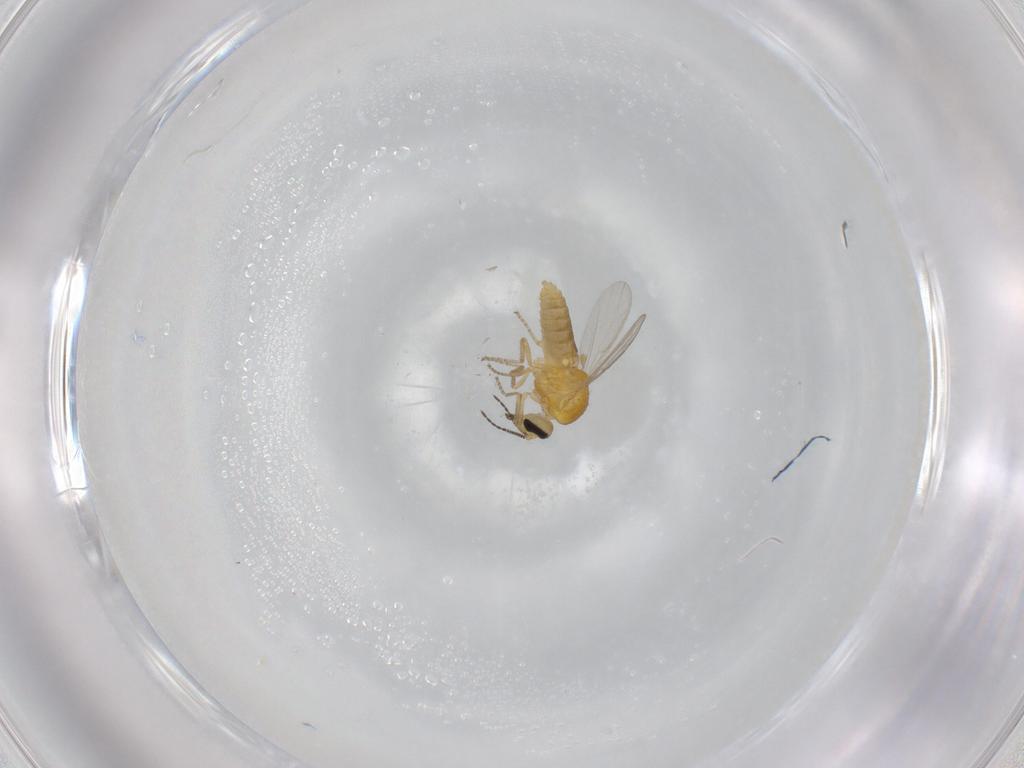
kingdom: Animalia
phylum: Arthropoda
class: Insecta
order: Diptera
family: Ceratopogonidae
